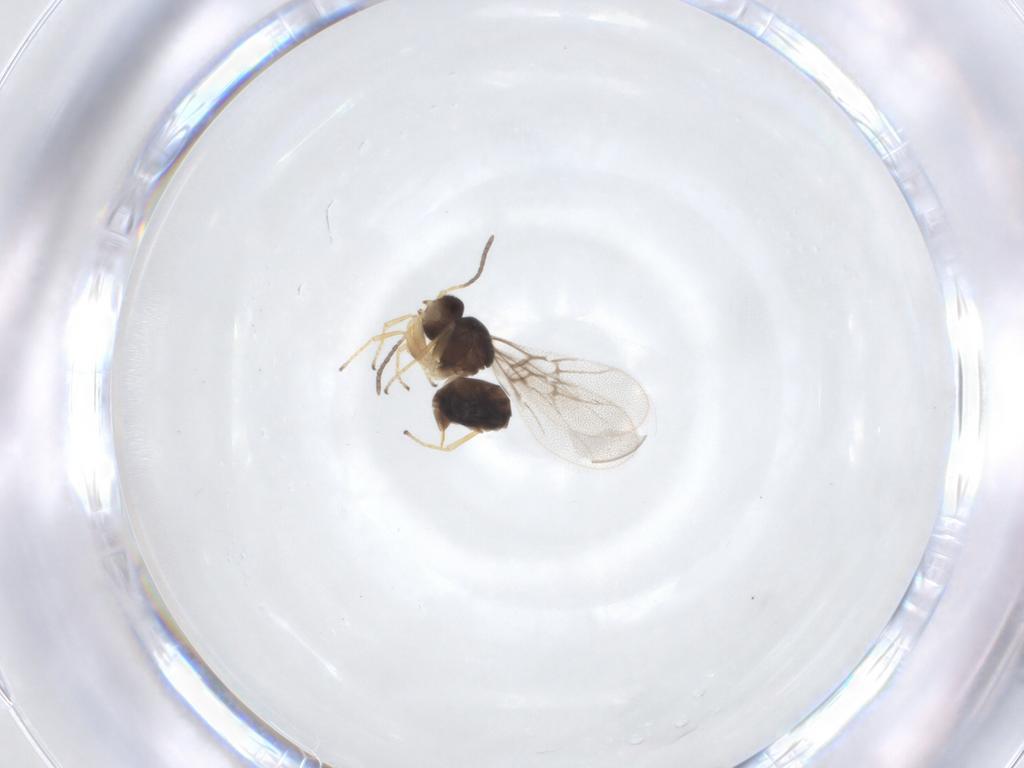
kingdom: Animalia
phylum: Arthropoda
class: Insecta
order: Hymenoptera
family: Cynipidae
